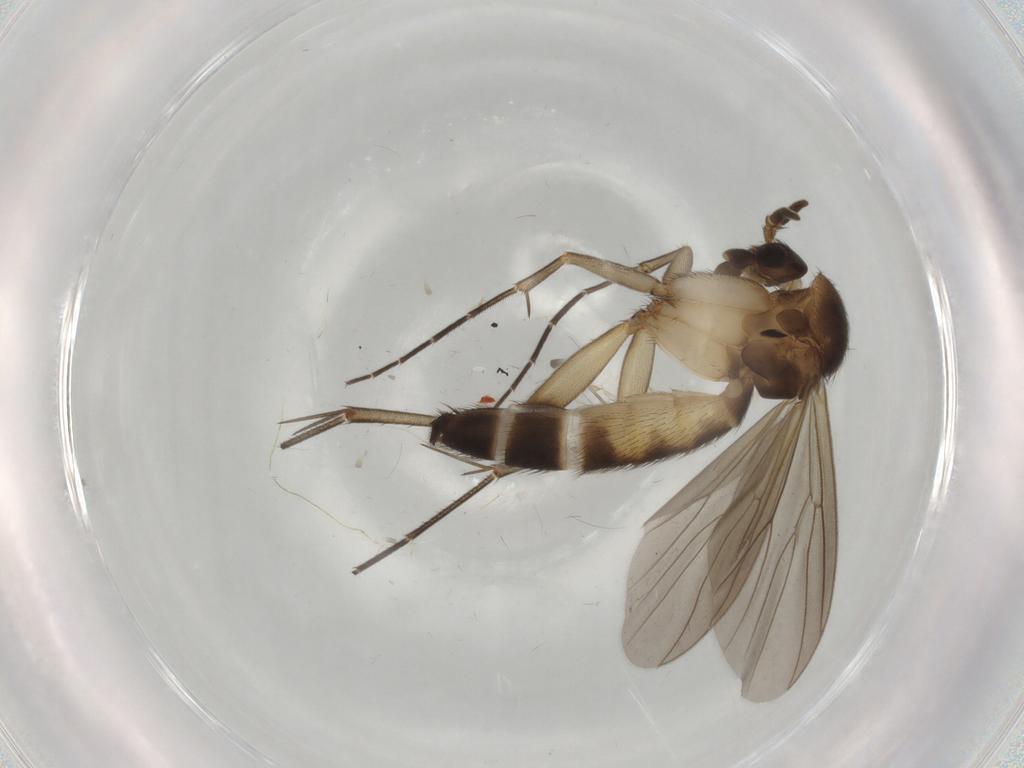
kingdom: Animalia
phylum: Arthropoda
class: Insecta
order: Diptera
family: Mycetophilidae
